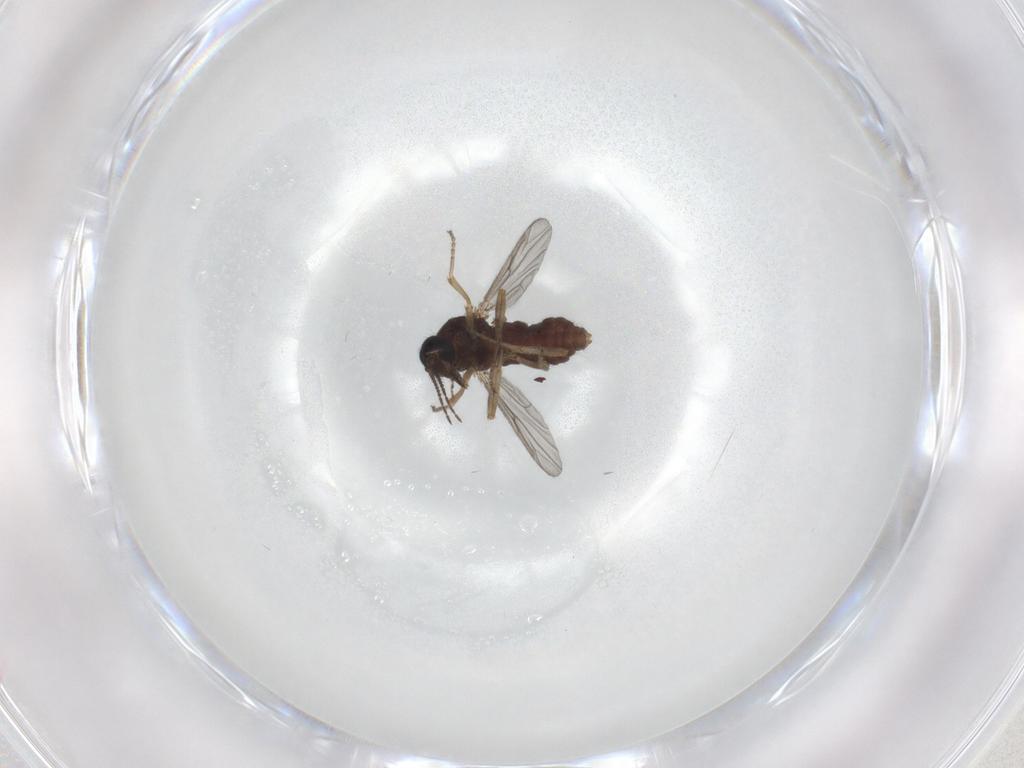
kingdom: Animalia
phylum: Arthropoda
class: Insecta
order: Diptera
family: Ceratopogonidae
